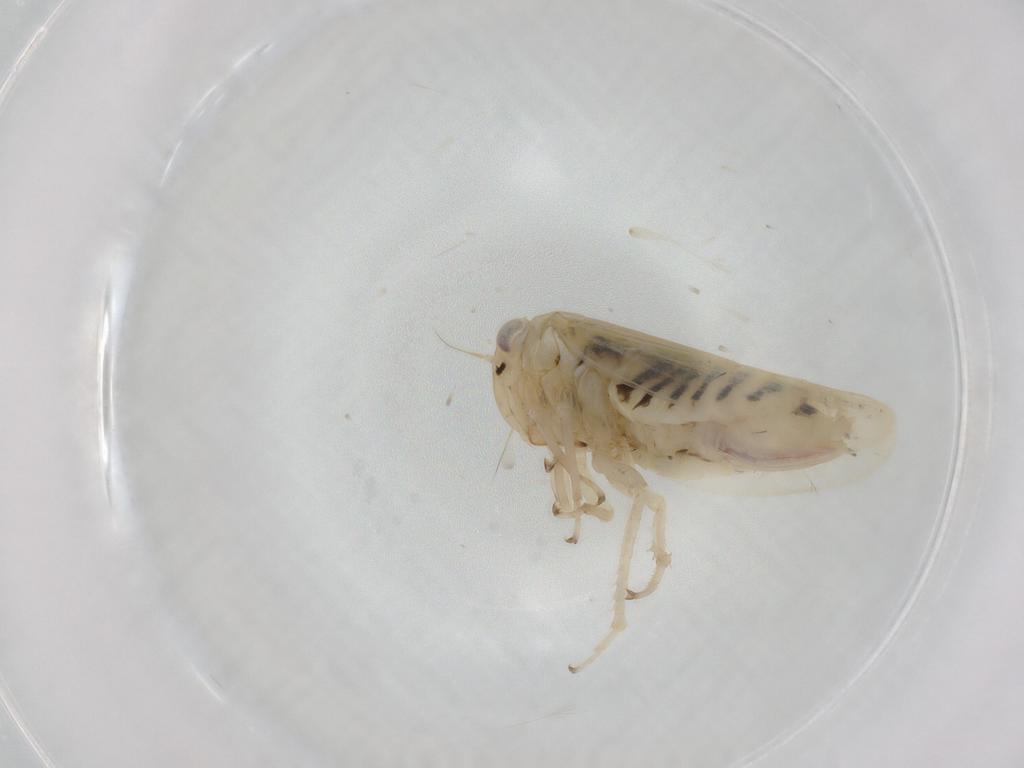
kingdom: Animalia
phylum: Arthropoda
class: Insecta
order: Hemiptera
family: Cicadellidae
